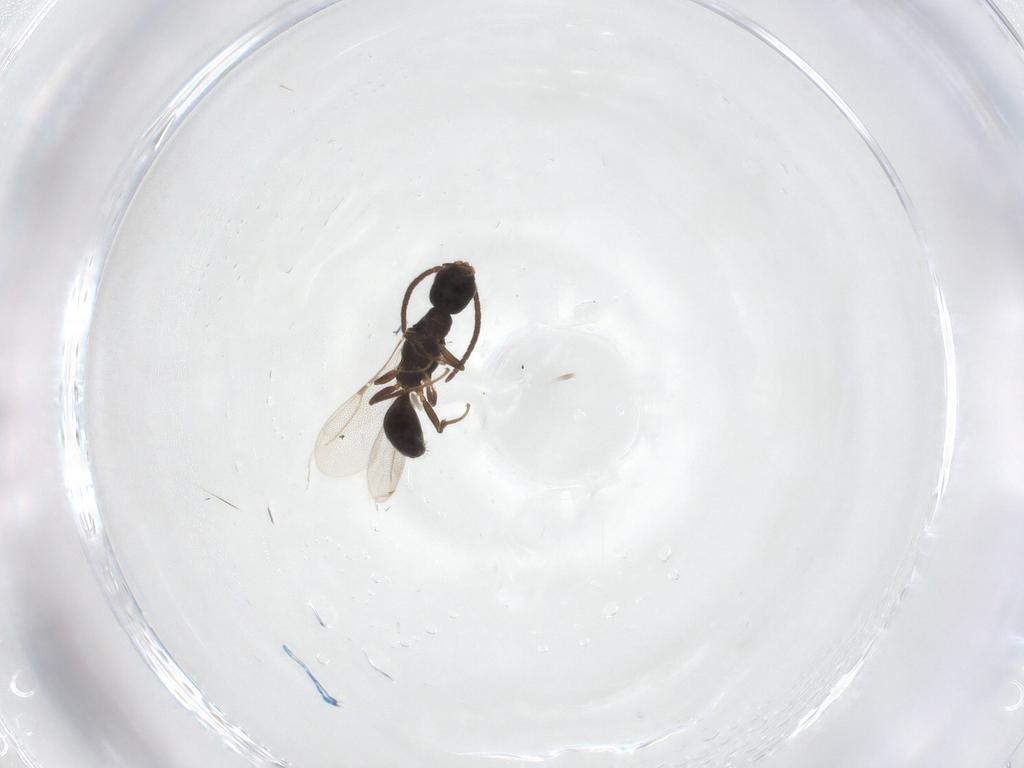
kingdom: Animalia
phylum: Arthropoda
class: Insecta
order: Hymenoptera
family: Bethylidae
